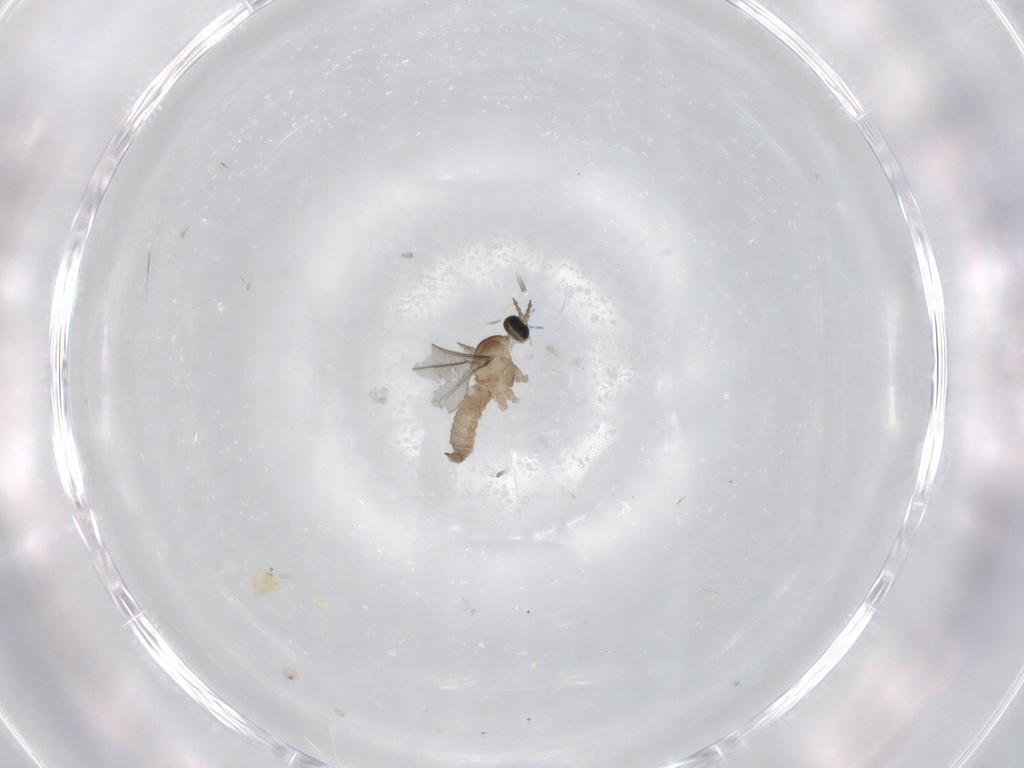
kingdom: Animalia
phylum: Arthropoda
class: Insecta
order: Diptera
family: Cecidomyiidae
